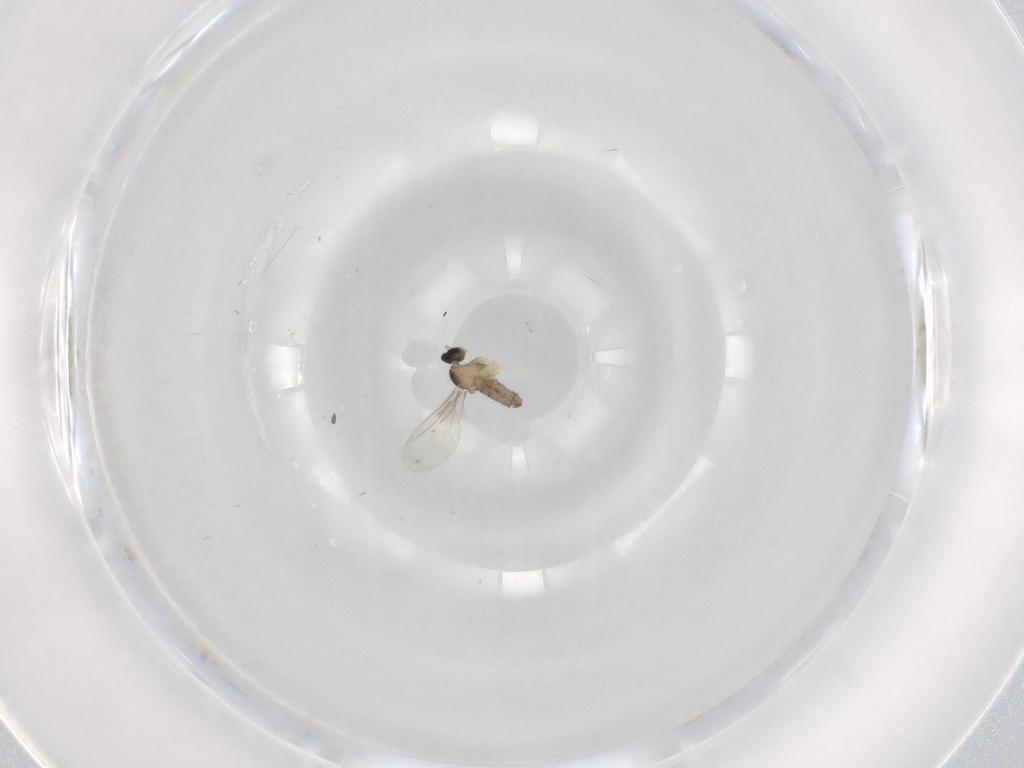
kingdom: Animalia
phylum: Arthropoda
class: Insecta
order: Diptera
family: Cecidomyiidae
